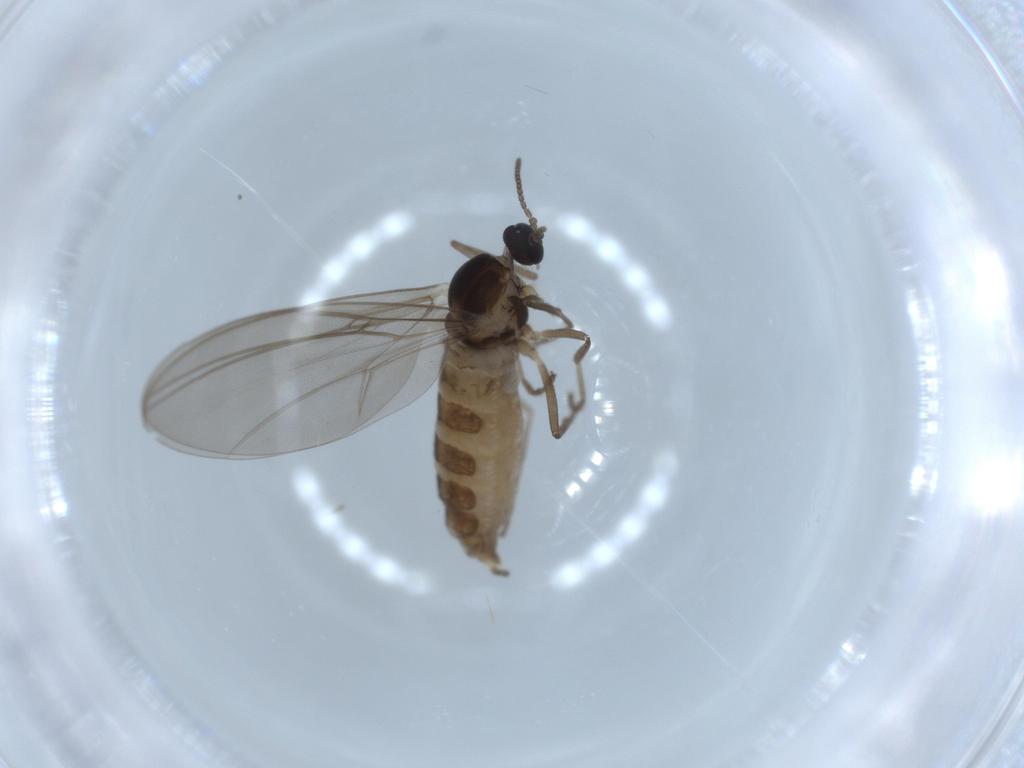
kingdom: Animalia
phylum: Arthropoda
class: Insecta
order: Diptera
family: Cecidomyiidae
